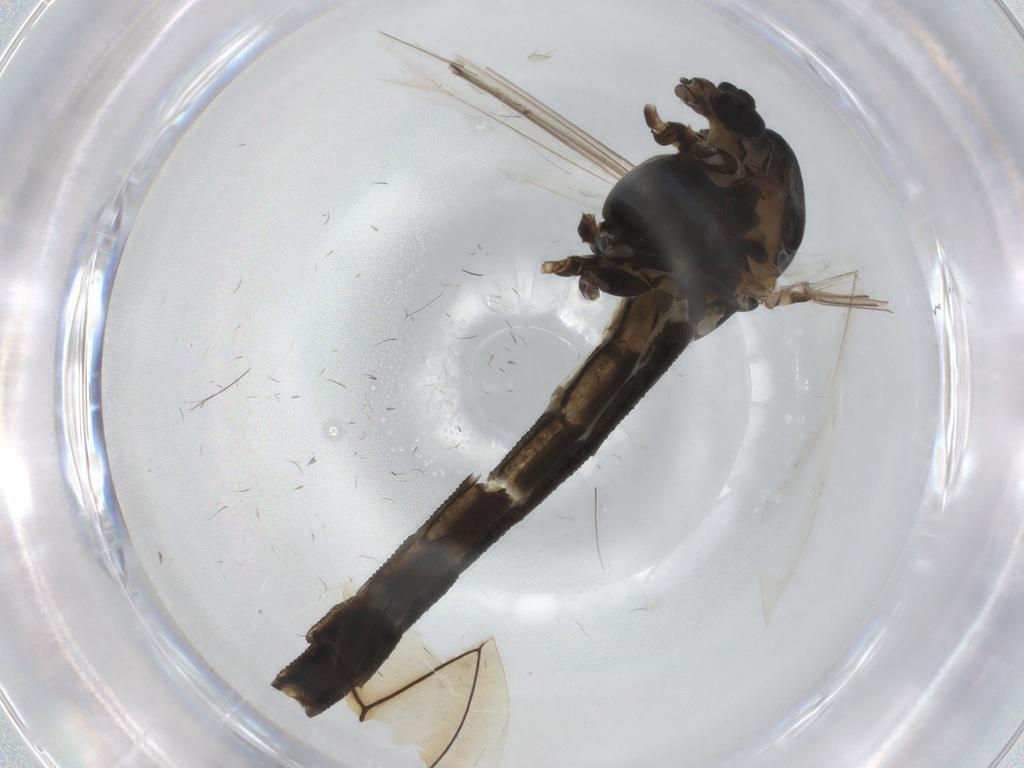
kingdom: Animalia
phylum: Arthropoda
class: Insecta
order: Diptera
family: Chironomidae
